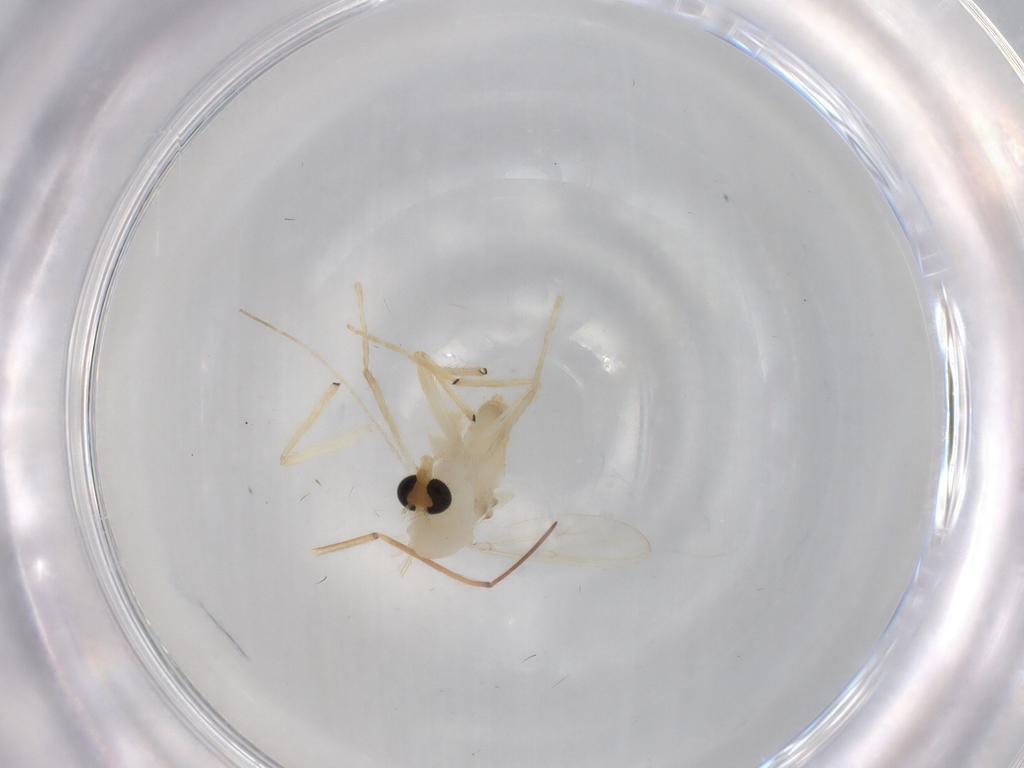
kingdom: Animalia
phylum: Arthropoda
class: Insecta
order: Diptera
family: Chironomidae
